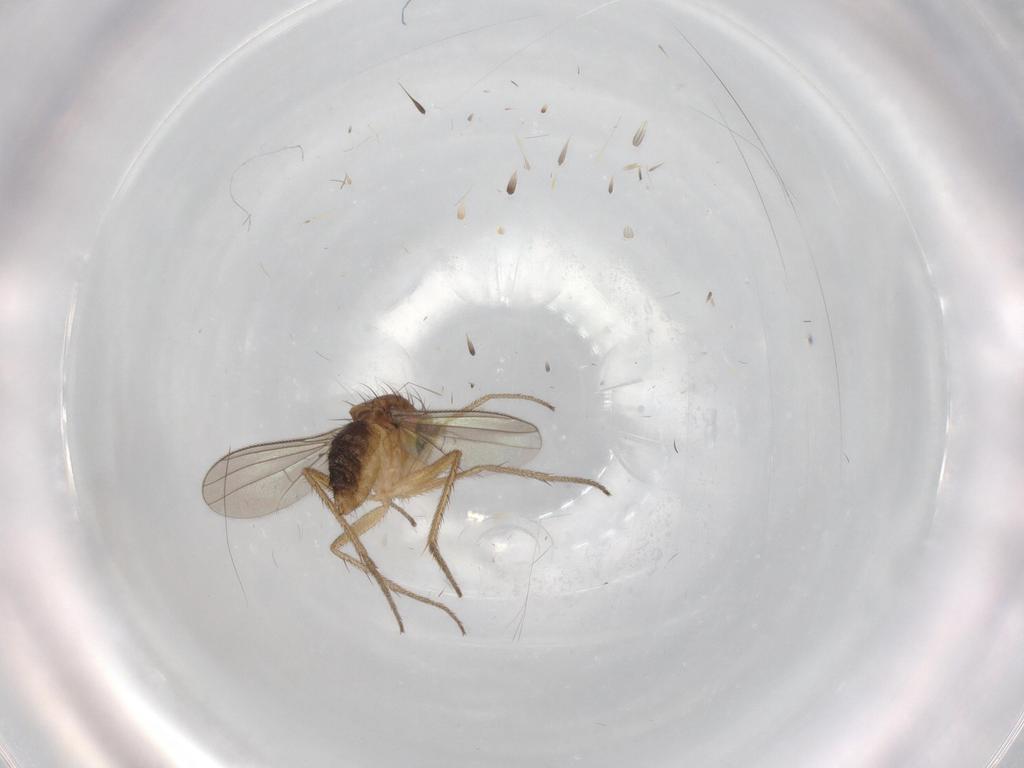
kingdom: Animalia
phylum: Arthropoda
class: Insecta
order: Diptera
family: Dolichopodidae
